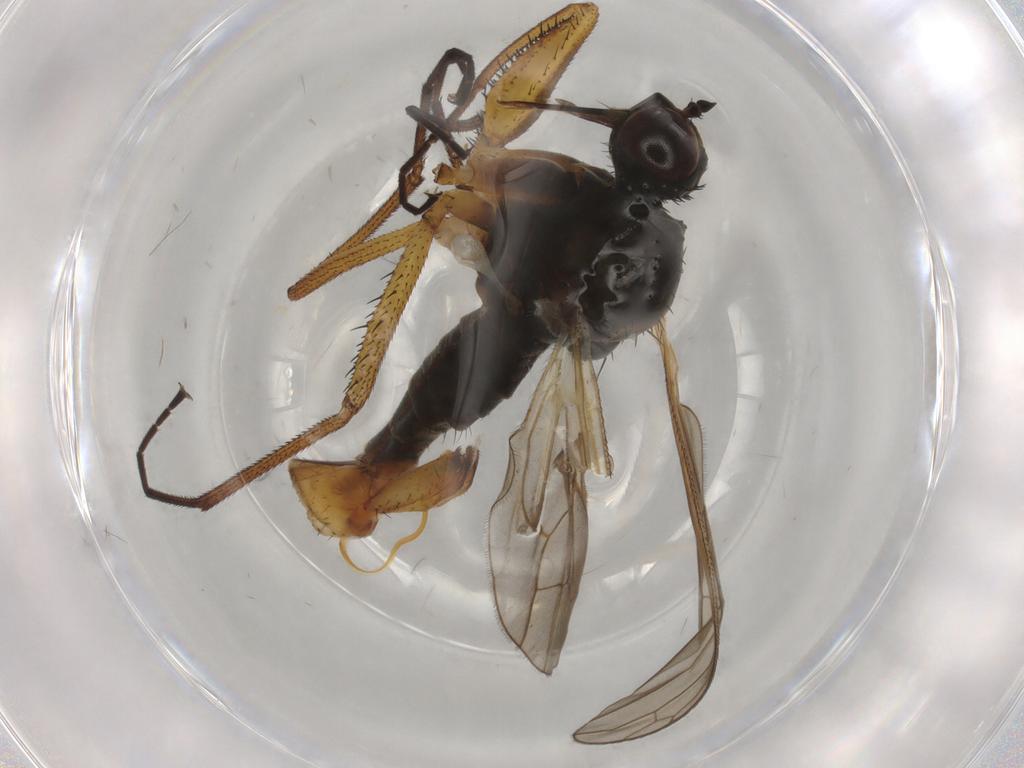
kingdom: Animalia
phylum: Arthropoda
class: Insecta
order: Diptera
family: Empididae
